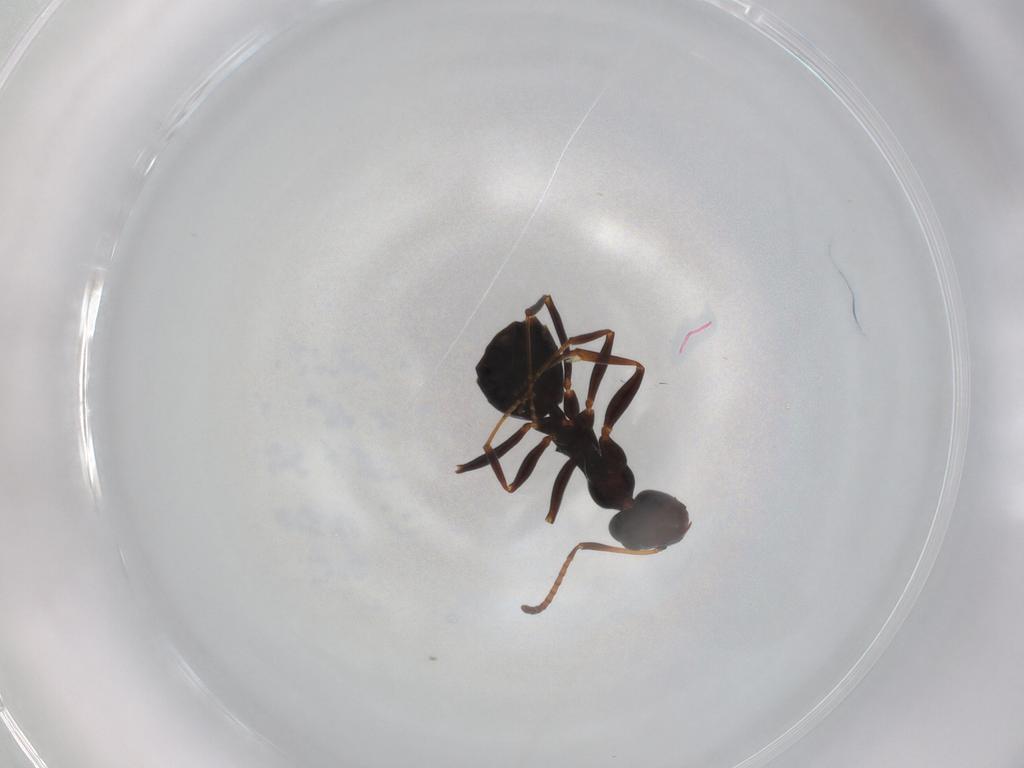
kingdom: Animalia
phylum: Arthropoda
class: Insecta
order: Hymenoptera
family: Formicidae
